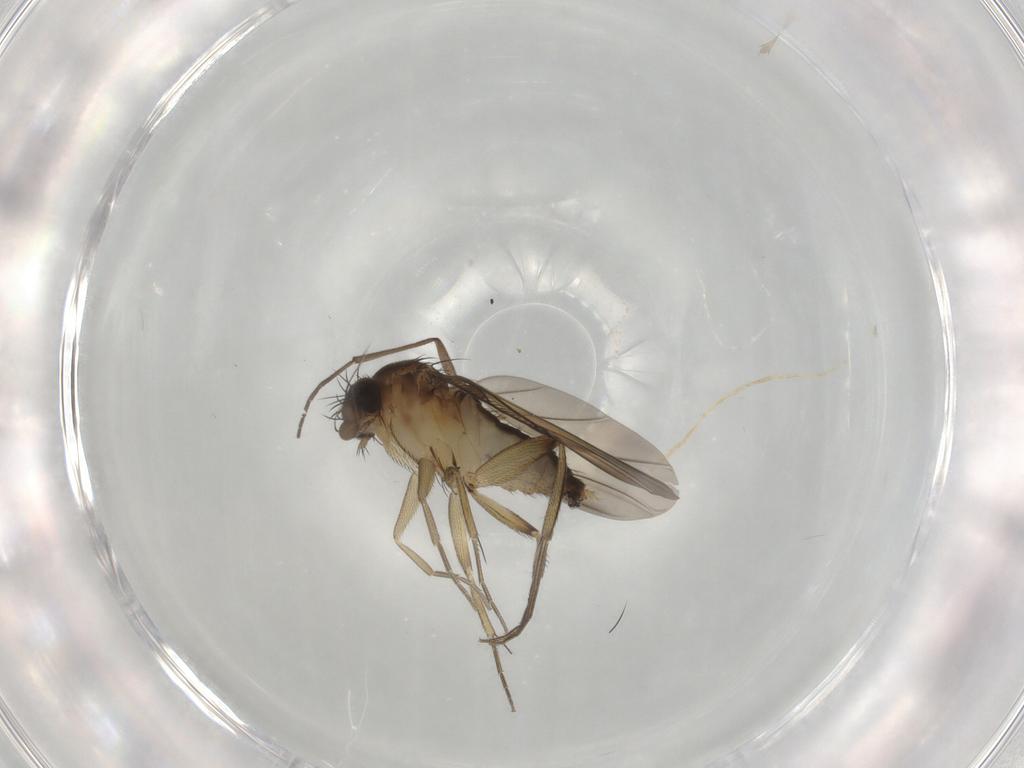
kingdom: Animalia
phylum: Arthropoda
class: Insecta
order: Diptera
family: Phoridae
